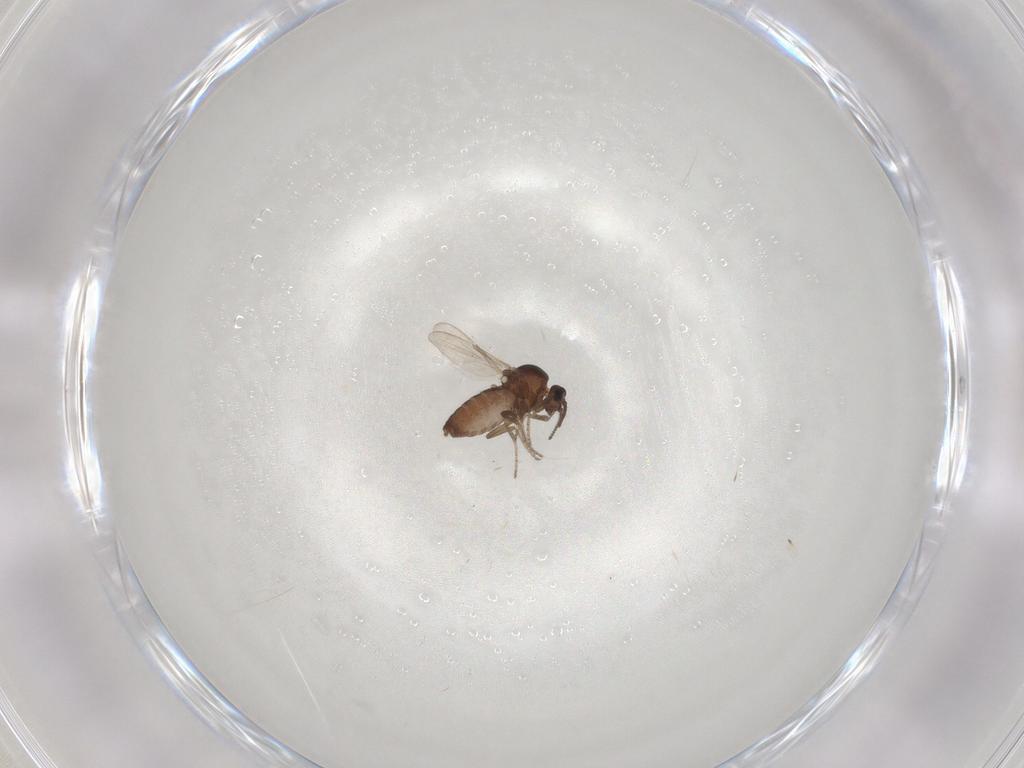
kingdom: Animalia
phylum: Arthropoda
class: Insecta
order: Diptera
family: Ceratopogonidae
